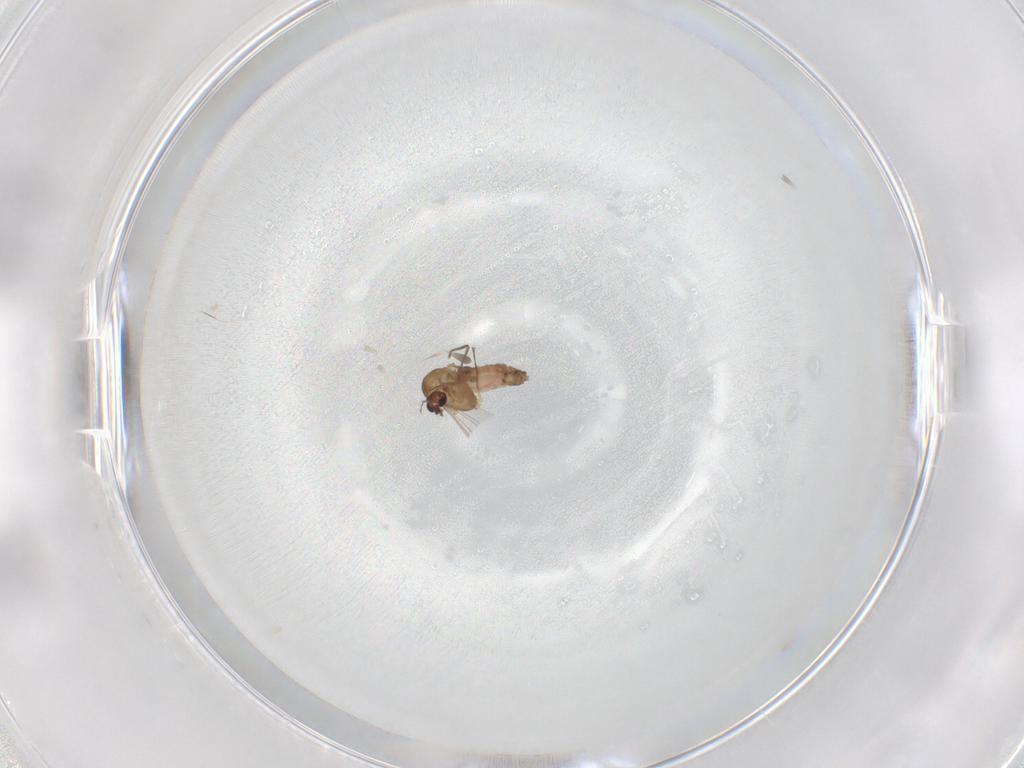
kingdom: Animalia
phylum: Arthropoda
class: Insecta
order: Diptera
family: Chironomidae
